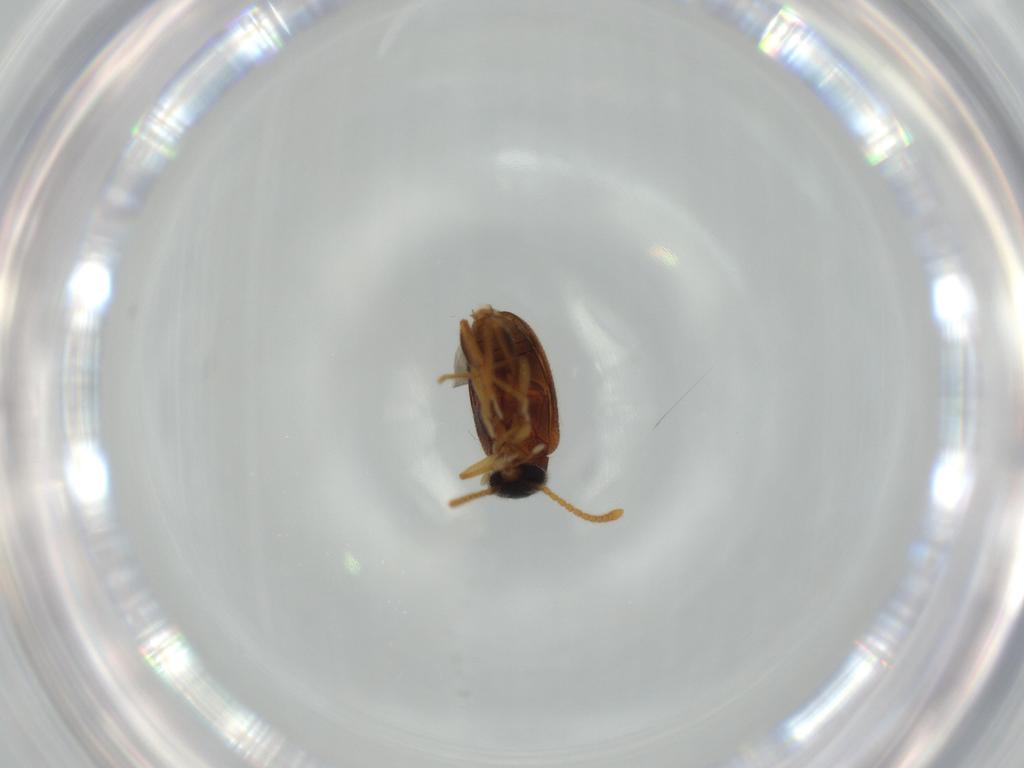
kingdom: Animalia
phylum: Arthropoda
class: Insecta
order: Coleoptera
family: Aderidae
